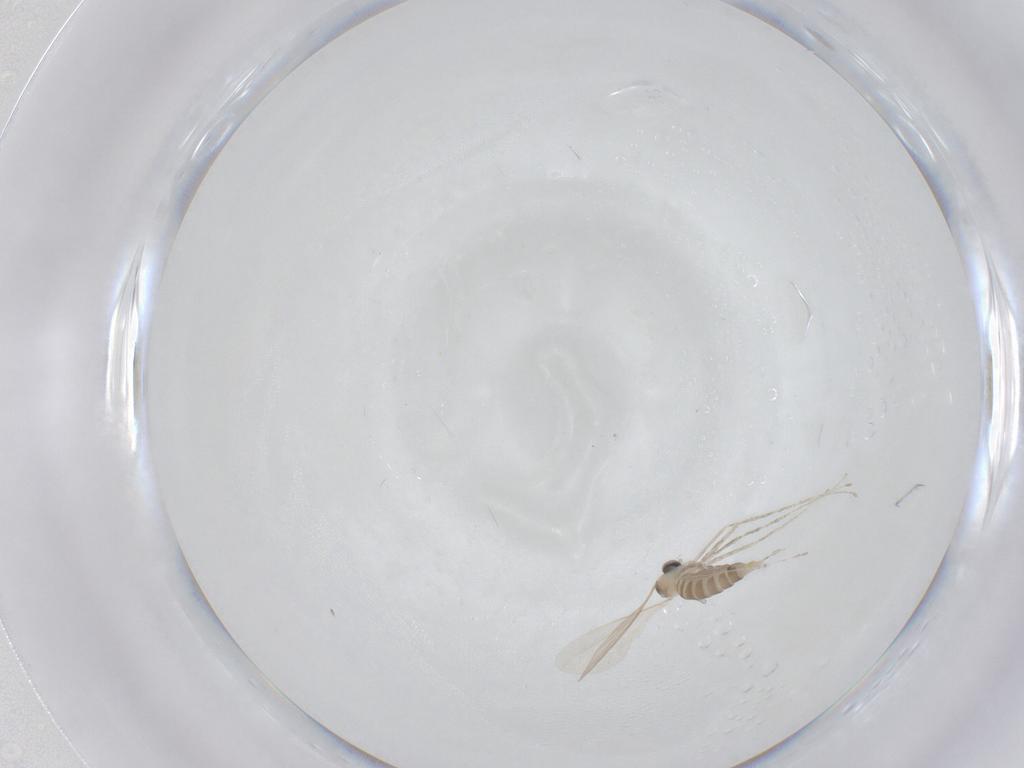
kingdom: Animalia
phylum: Arthropoda
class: Insecta
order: Diptera
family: Cecidomyiidae
